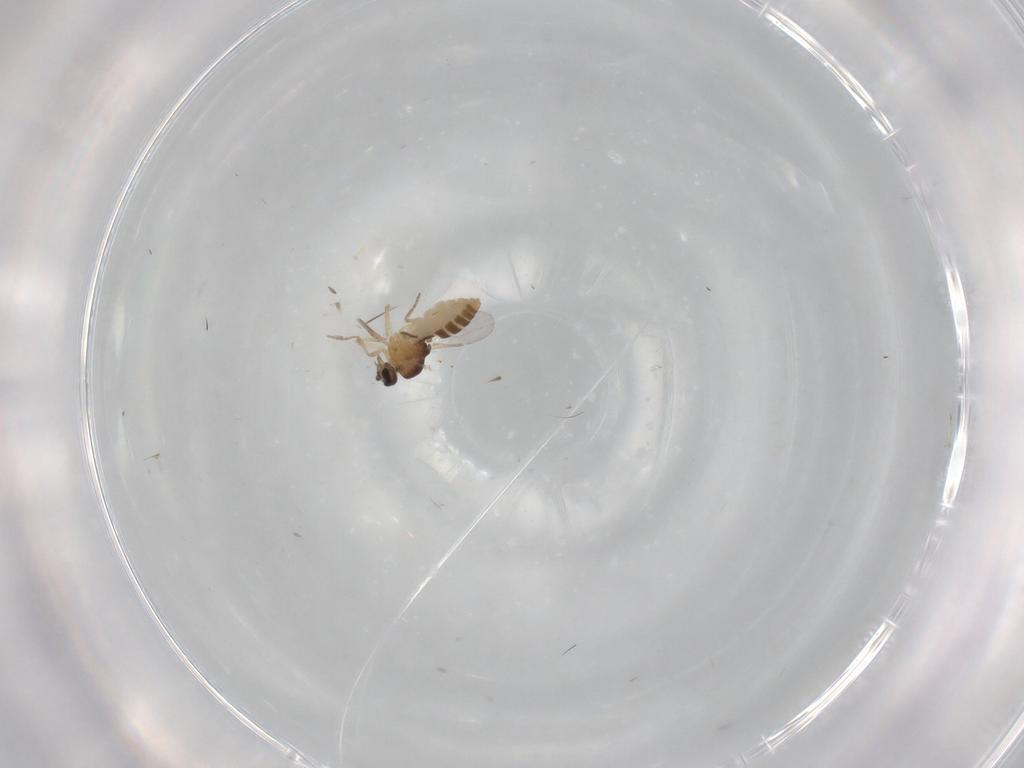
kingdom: Animalia
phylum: Arthropoda
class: Insecta
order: Diptera
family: Ceratopogonidae
